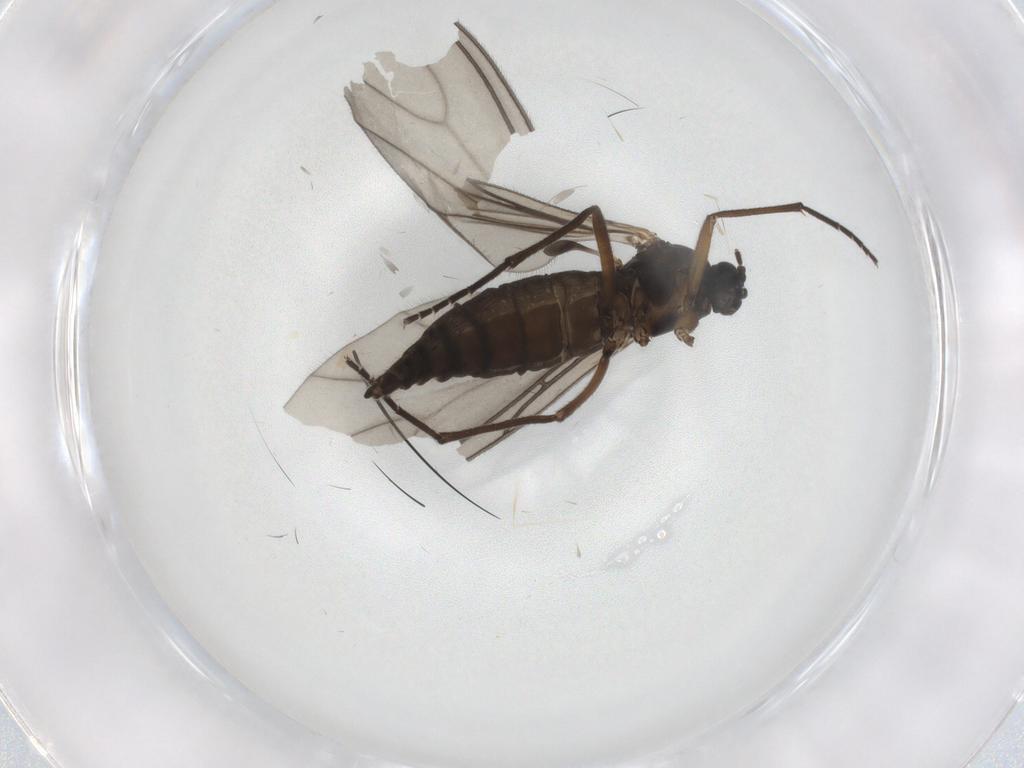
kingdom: Animalia
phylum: Arthropoda
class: Insecta
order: Diptera
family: Sciaridae
